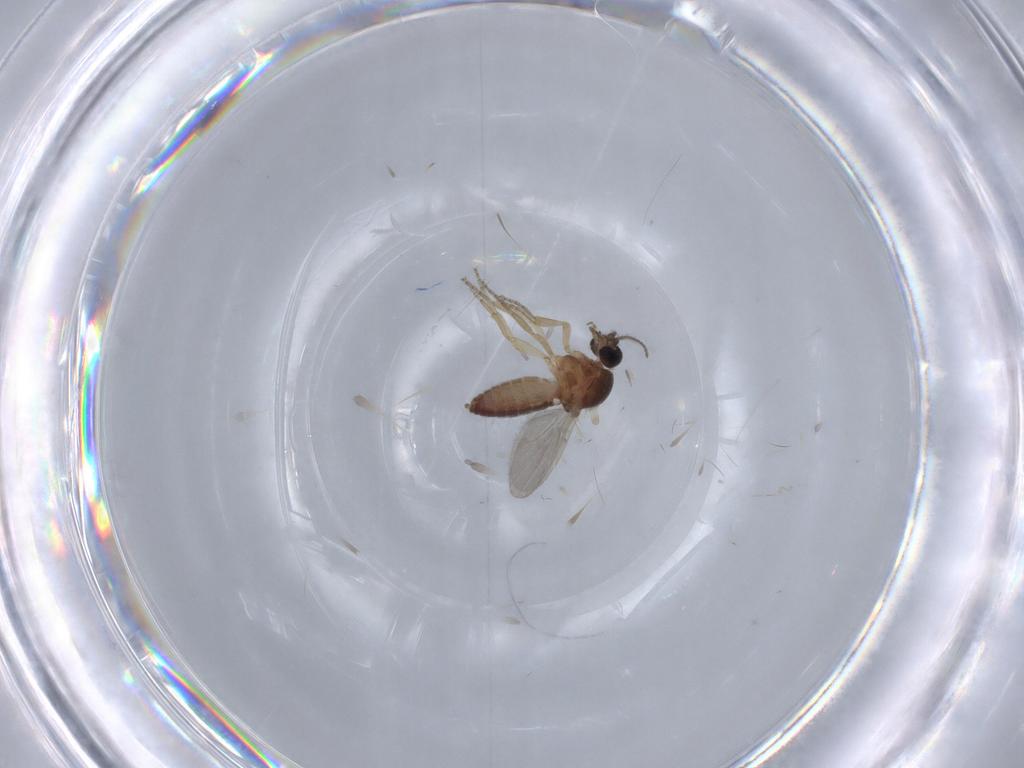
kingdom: Animalia
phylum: Arthropoda
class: Insecta
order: Diptera
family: Ceratopogonidae
